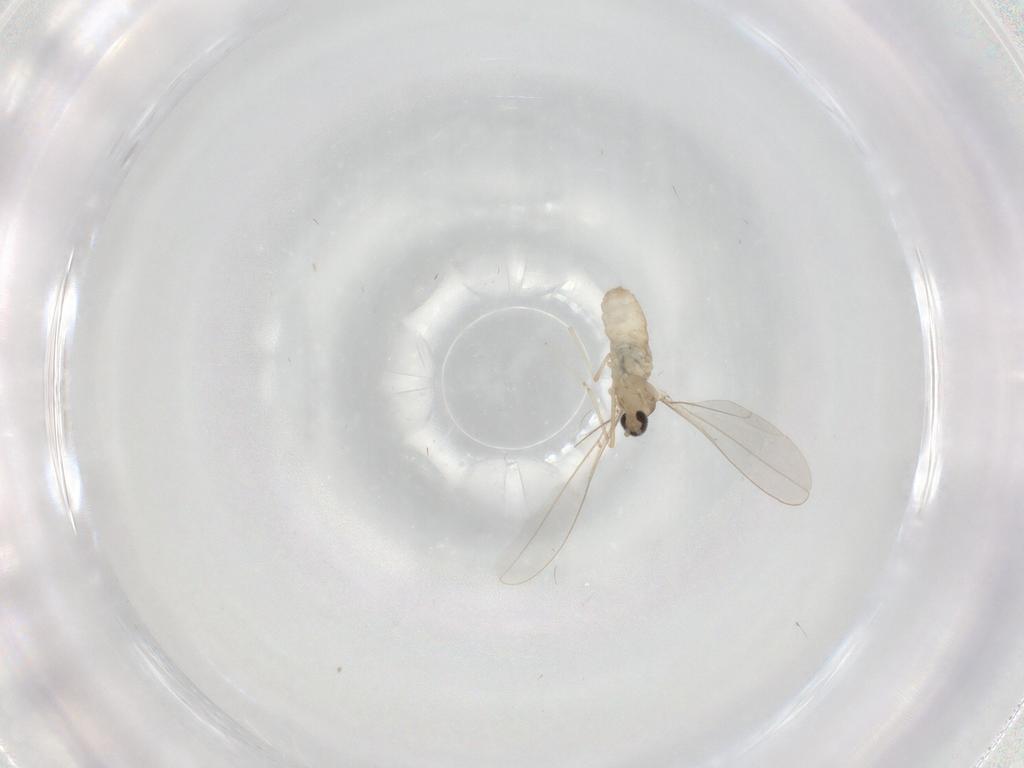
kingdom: Animalia
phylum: Arthropoda
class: Insecta
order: Diptera
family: Cecidomyiidae
